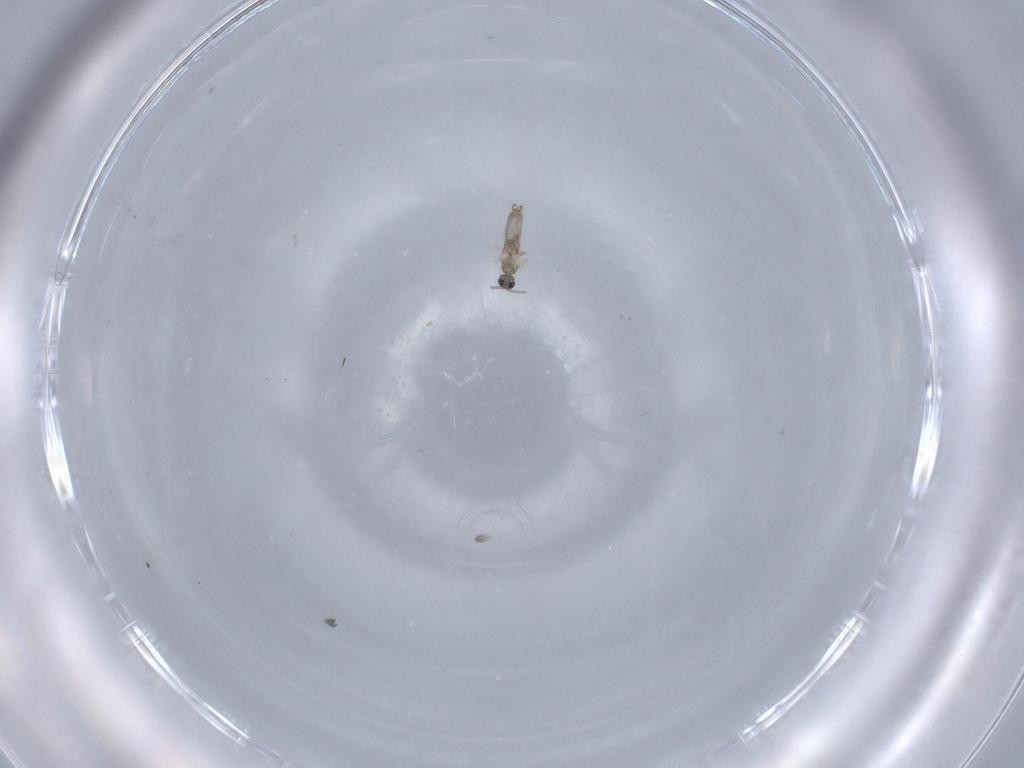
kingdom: Animalia
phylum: Arthropoda
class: Insecta
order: Diptera
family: Cecidomyiidae
